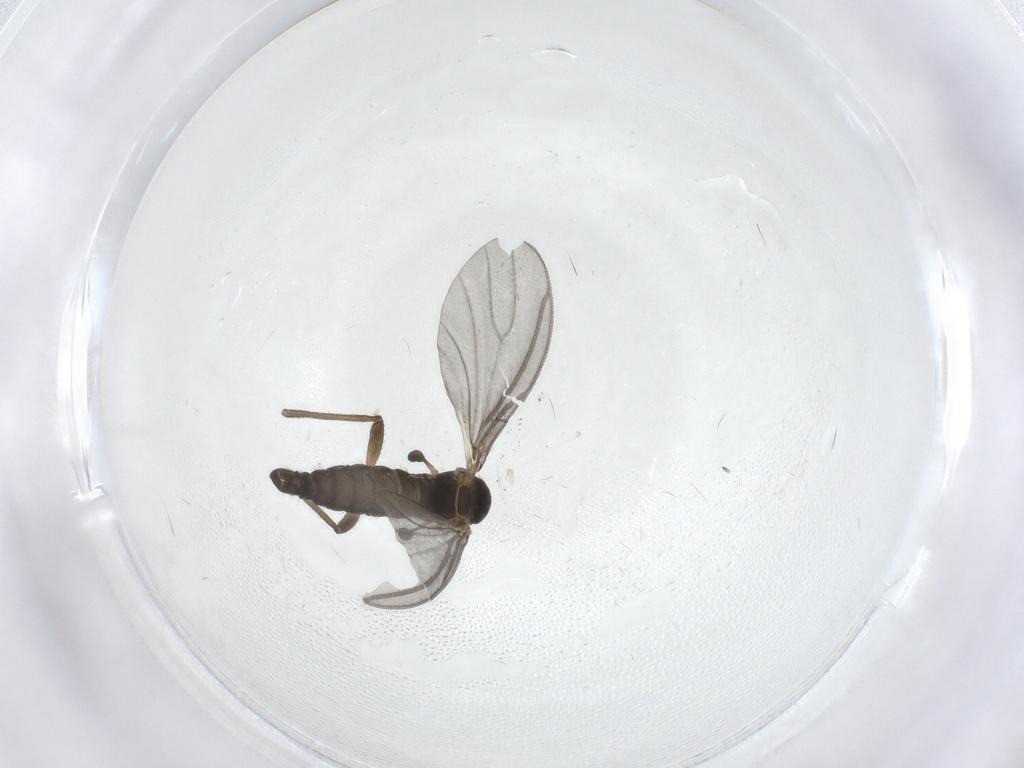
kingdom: Animalia
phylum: Arthropoda
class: Insecta
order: Diptera
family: Sciaridae
